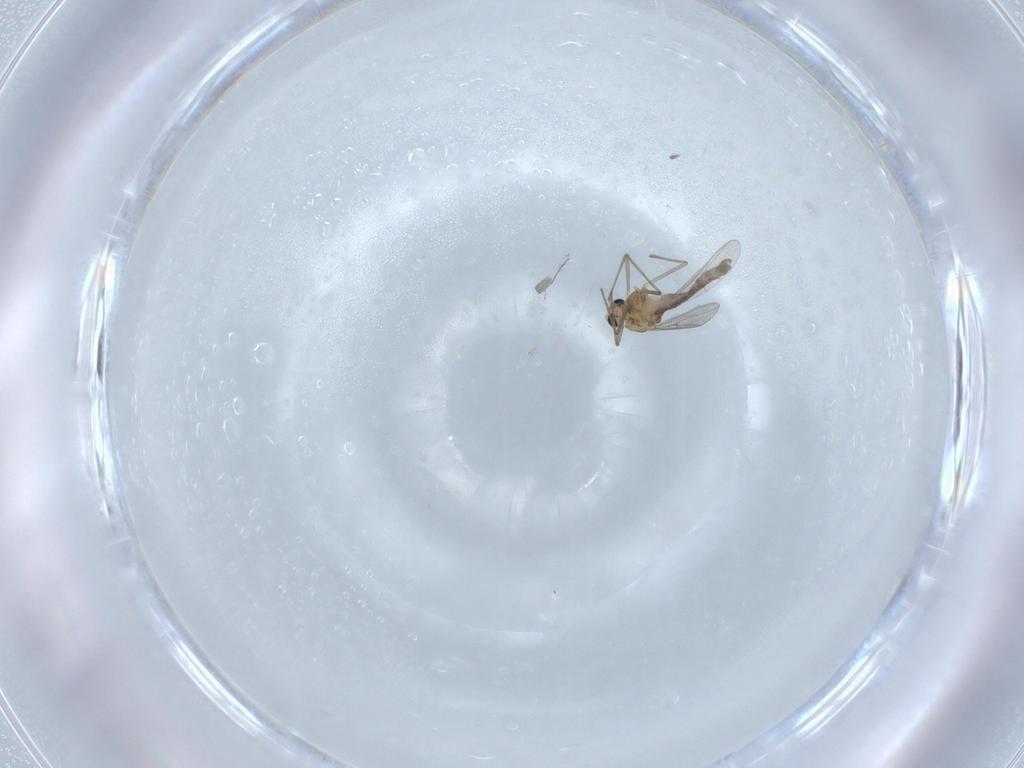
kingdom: Animalia
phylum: Arthropoda
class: Insecta
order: Diptera
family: Chironomidae
